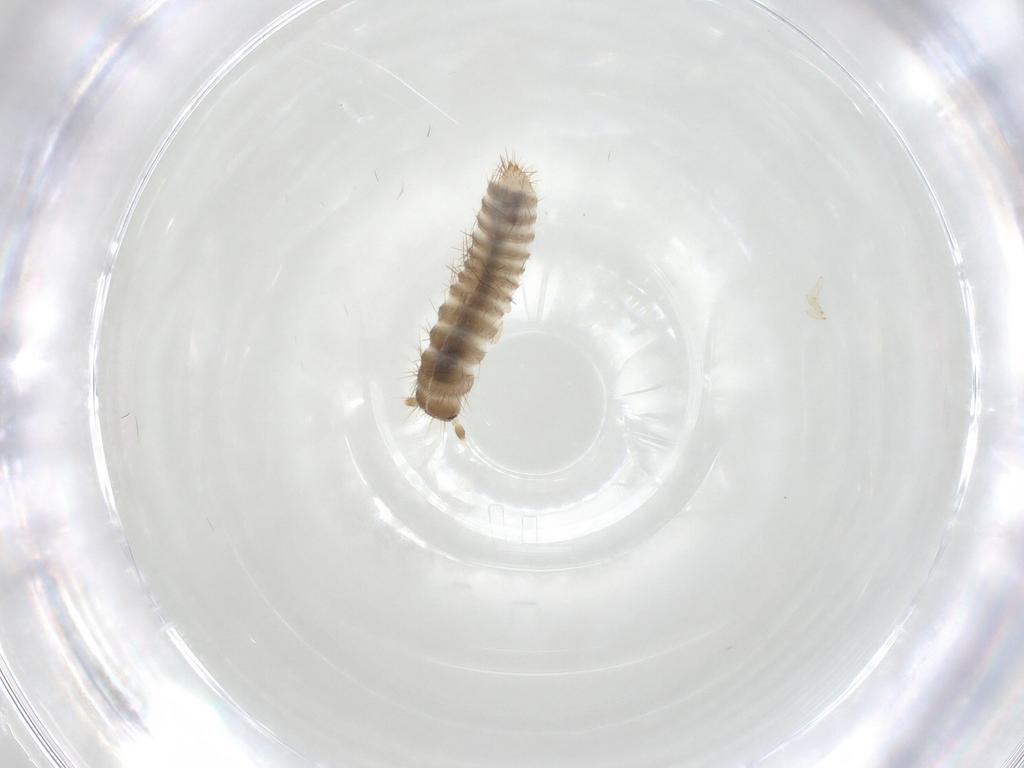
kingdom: Animalia
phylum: Arthropoda
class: Insecta
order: Coleoptera
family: Tenebrionidae
